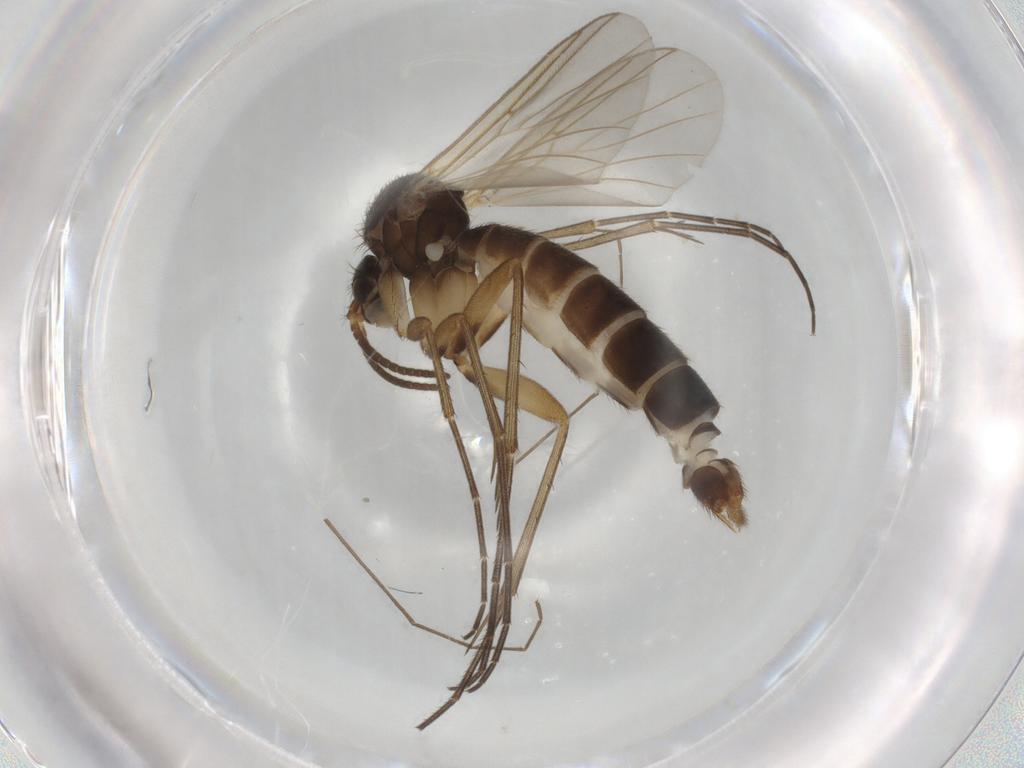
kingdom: Animalia
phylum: Arthropoda
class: Insecta
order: Diptera
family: Mycetophilidae
